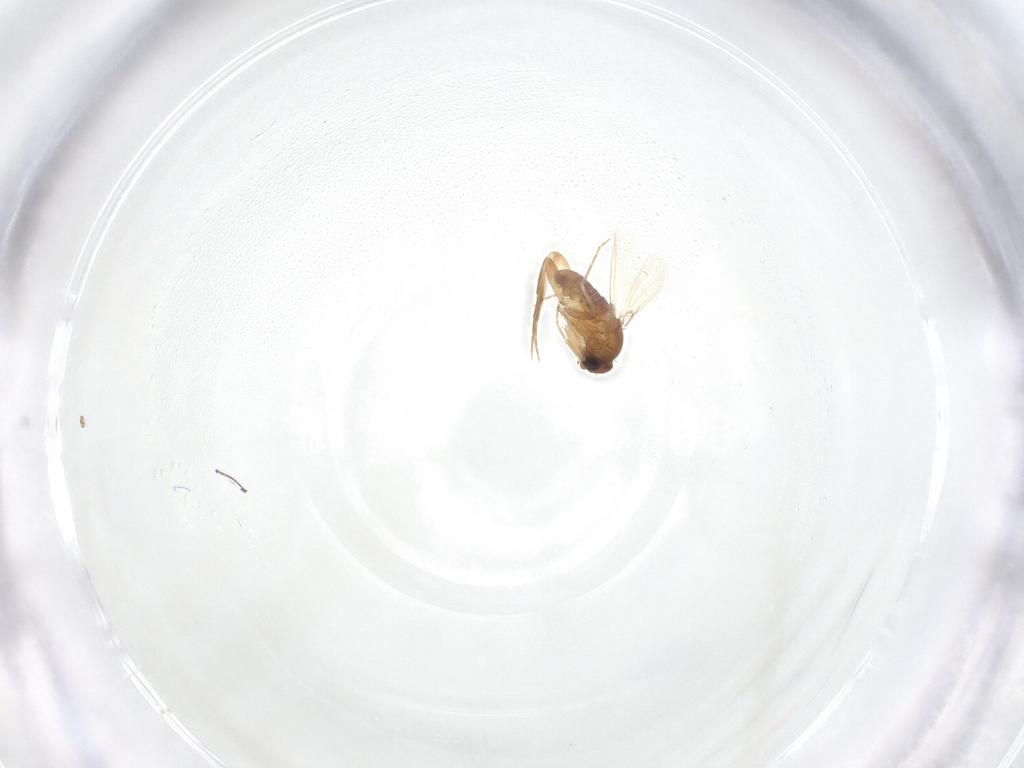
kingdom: Animalia
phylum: Arthropoda
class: Insecta
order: Diptera
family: Phoridae
